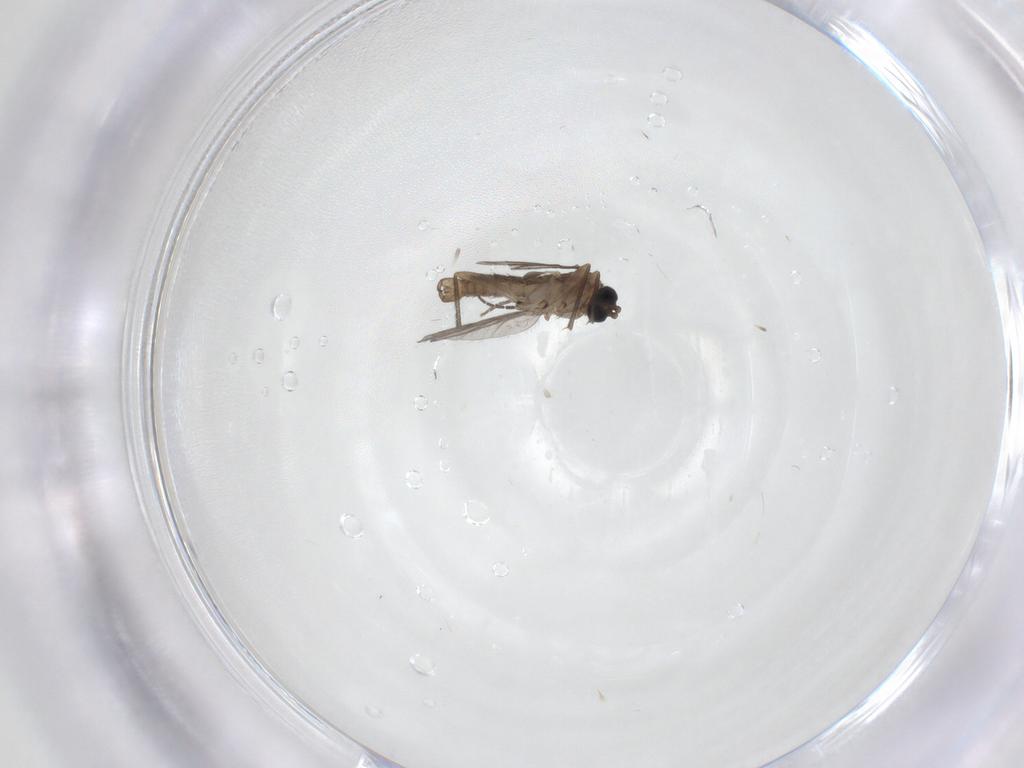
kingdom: Animalia
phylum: Arthropoda
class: Insecta
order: Diptera
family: Sciaridae
